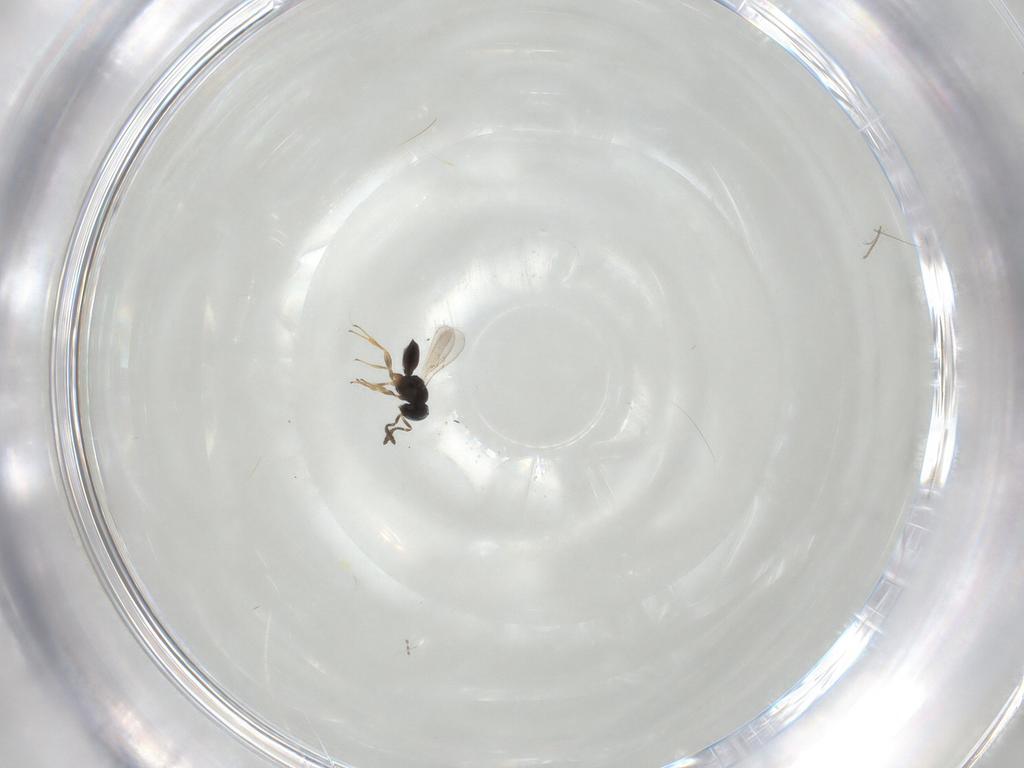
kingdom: Animalia
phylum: Arthropoda
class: Insecta
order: Hymenoptera
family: Scelionidae
